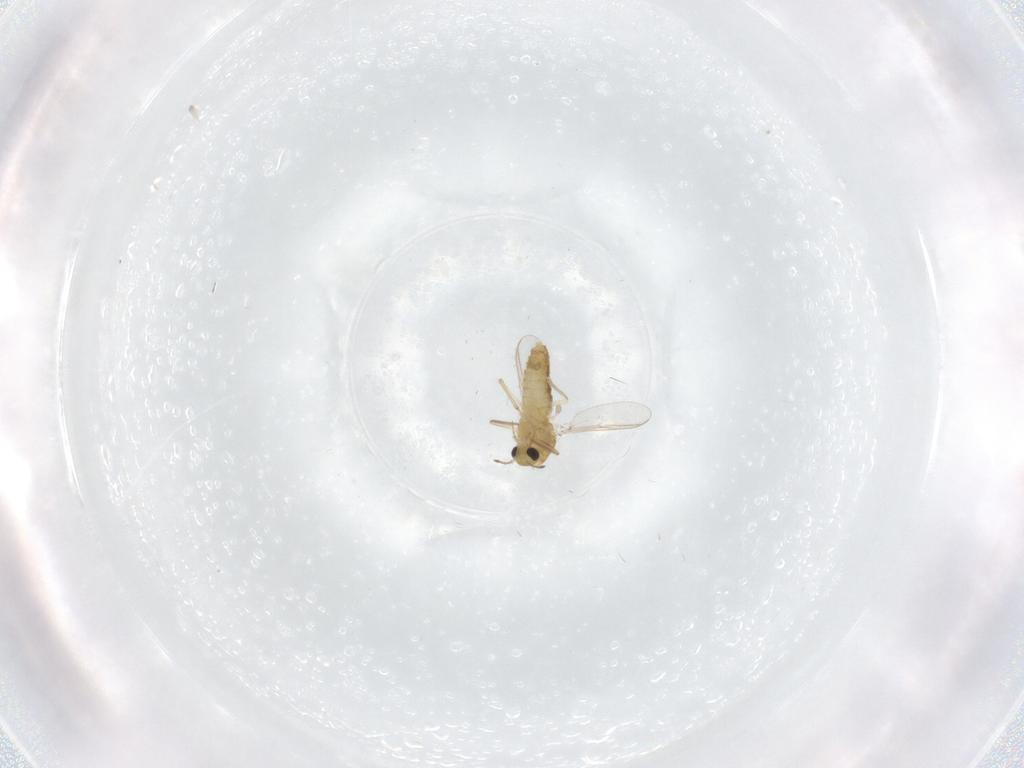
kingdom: Animalia
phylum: Arthropoda
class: Insecta
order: Diptera
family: Chironomidae
